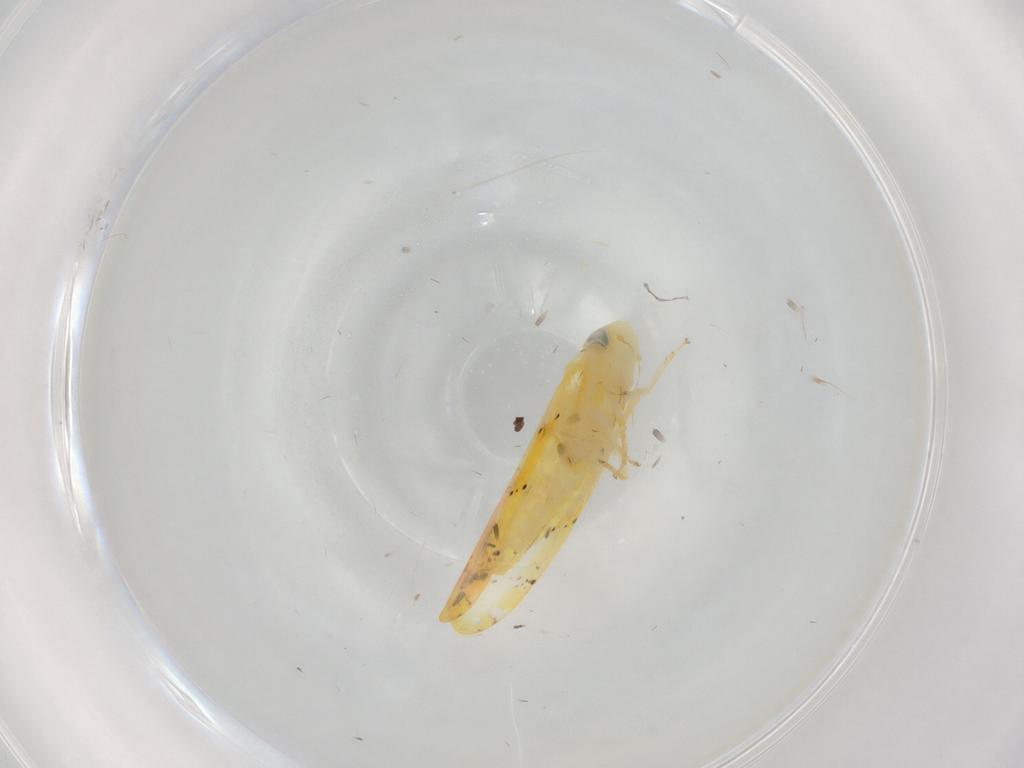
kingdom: Animalia
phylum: Arthropoda
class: Insecta
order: Hemiptera
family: Cicadellidae
